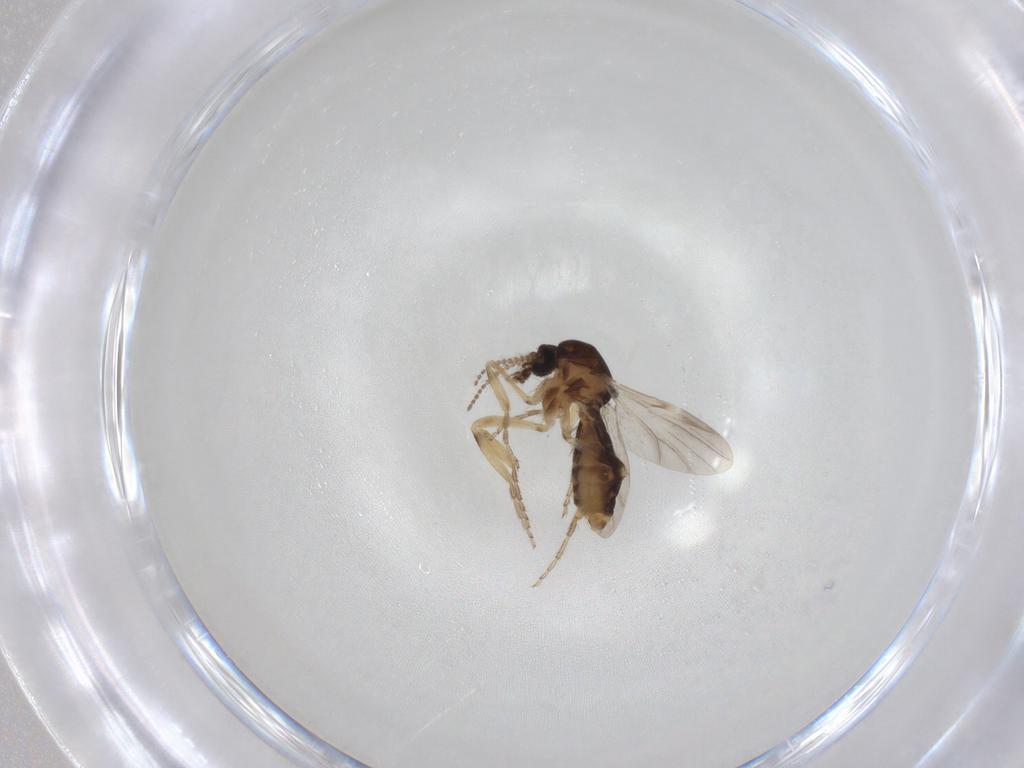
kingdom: Animalia
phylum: Arthropoda
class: Insecta
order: Diptera
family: Ceratopogonidae
